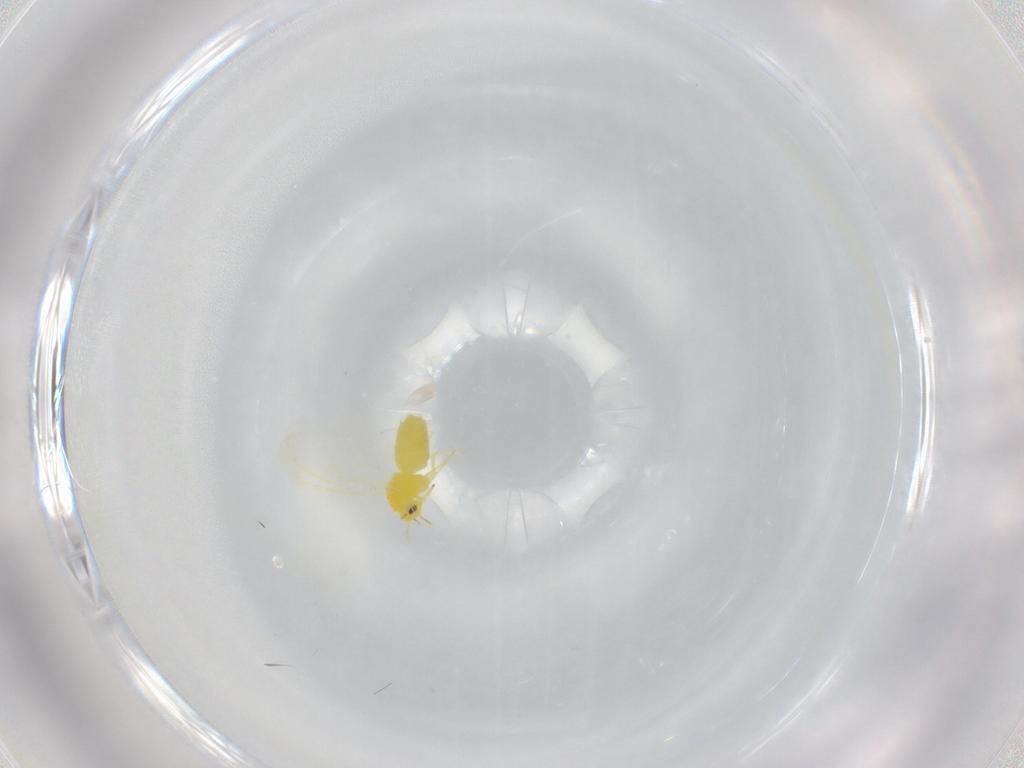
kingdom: Animalia
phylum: Arthropoda
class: Insecta
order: Hemiptera
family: Aleyrodidae
